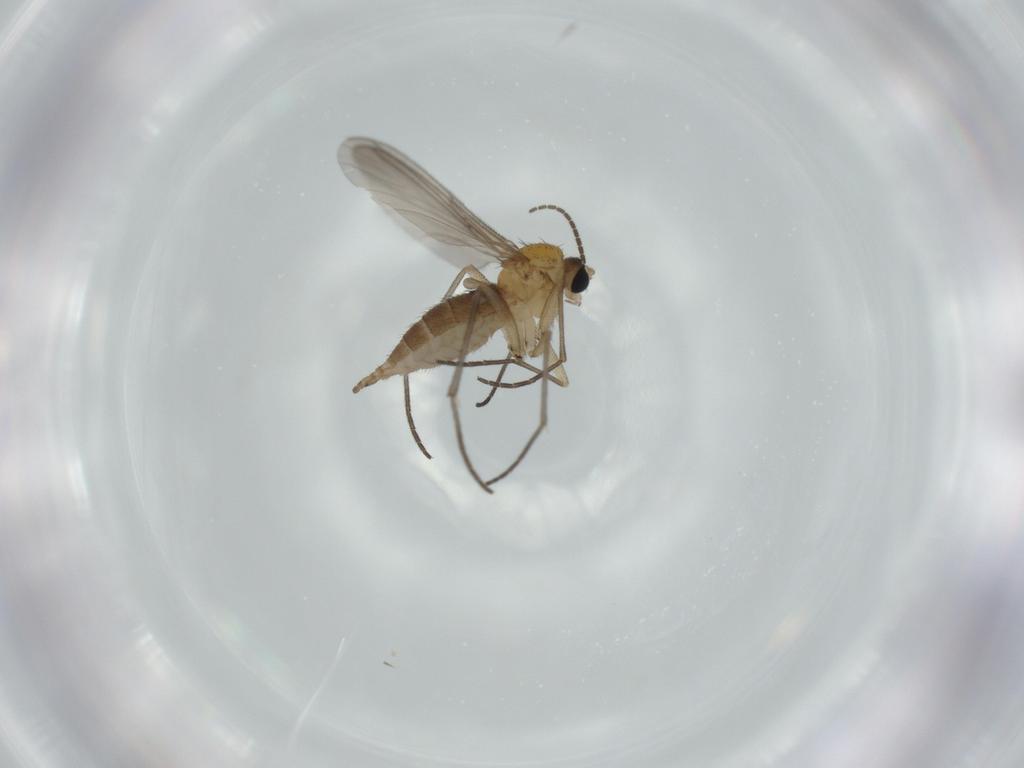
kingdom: Animalia
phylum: Arthropoda
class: Insecta
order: Diptera
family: Sciaridae
